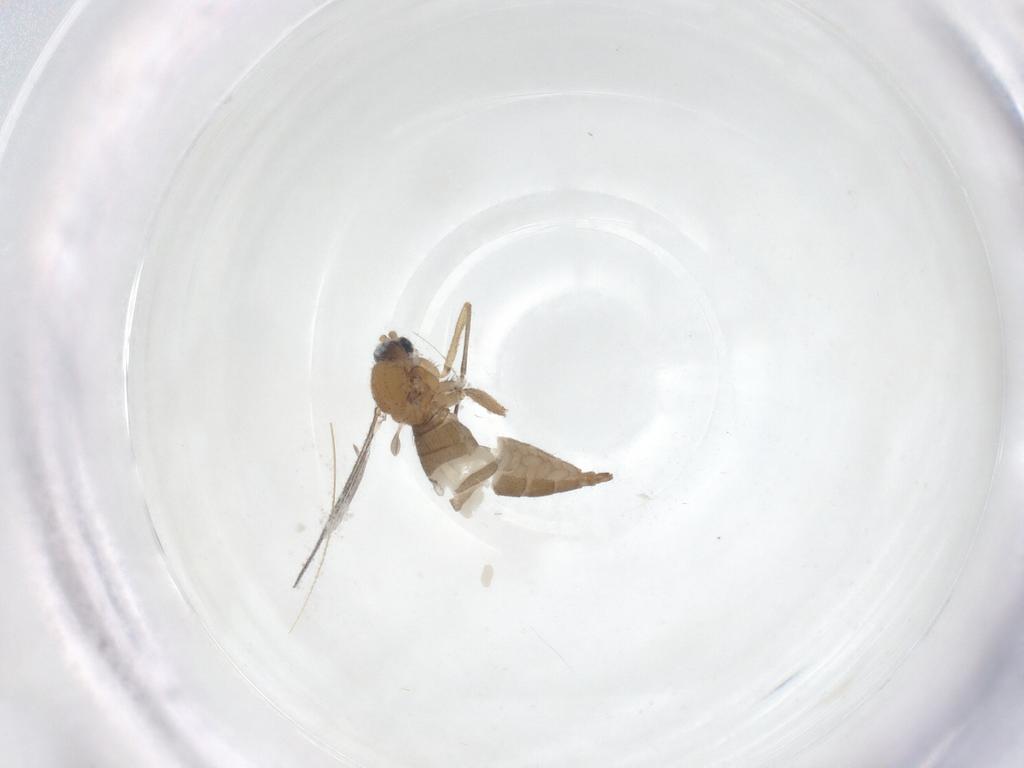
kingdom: Animalia
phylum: Arthropoda
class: Insecta
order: Diptera
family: Sciaridae
